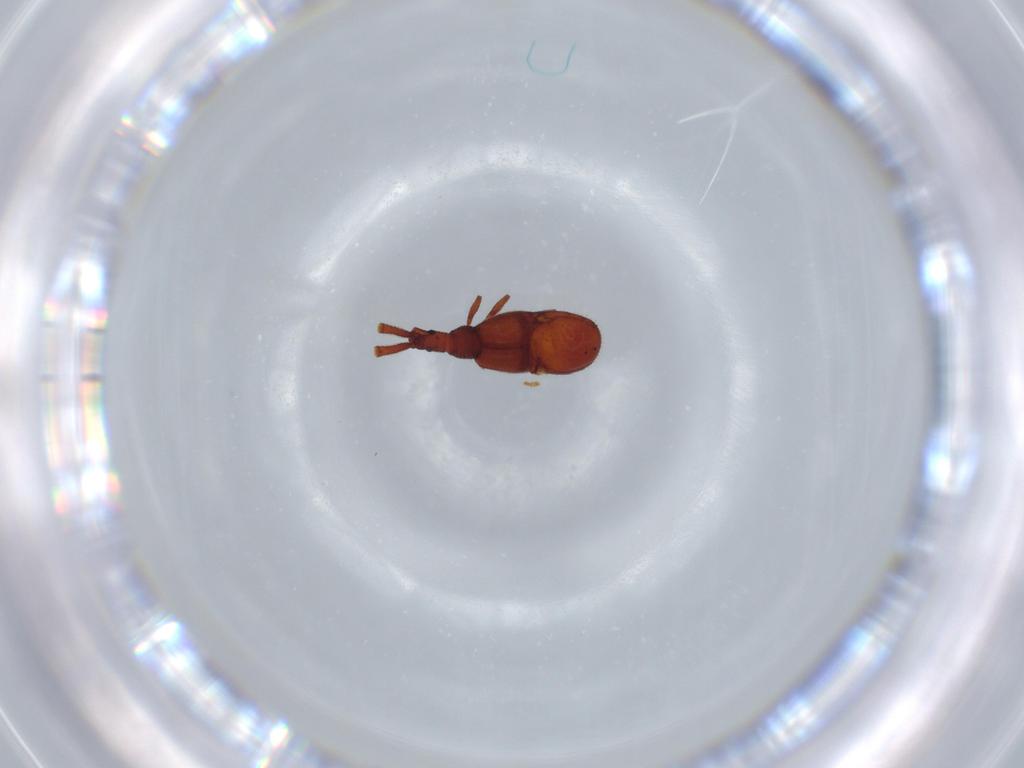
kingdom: Animalia
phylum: Arthropoda
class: Insecta
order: Coleoptera
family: Staphylinidae
